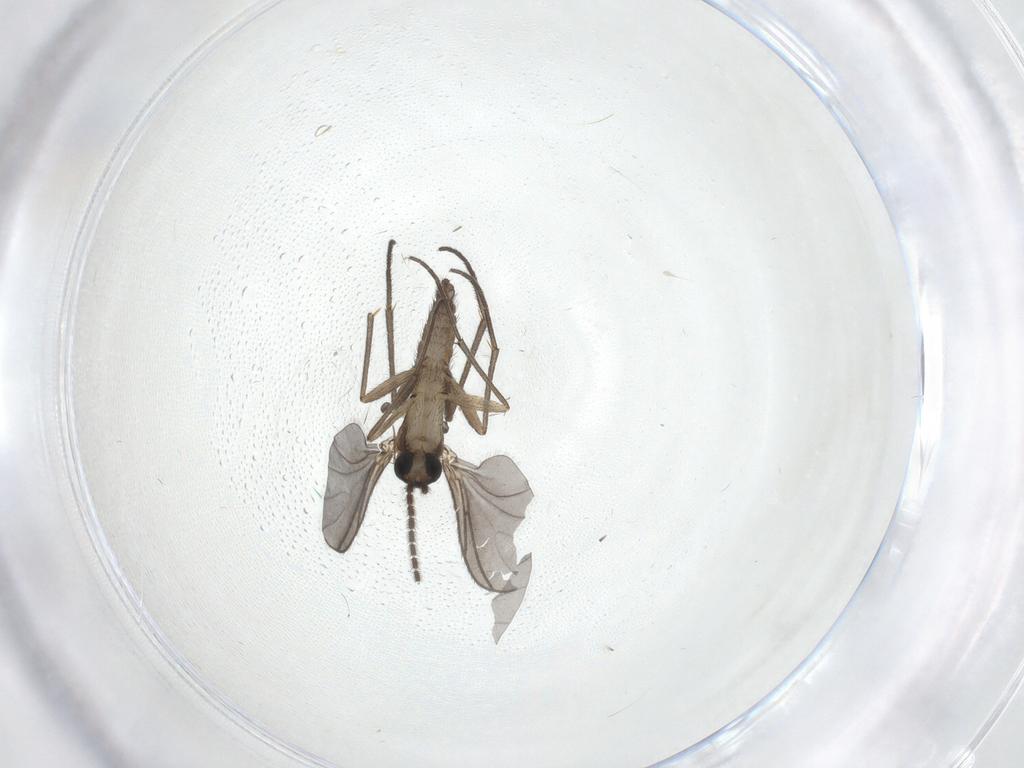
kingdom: Animalia
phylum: Arthropoda
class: Insecta
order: Diptera
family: Sciaridae
